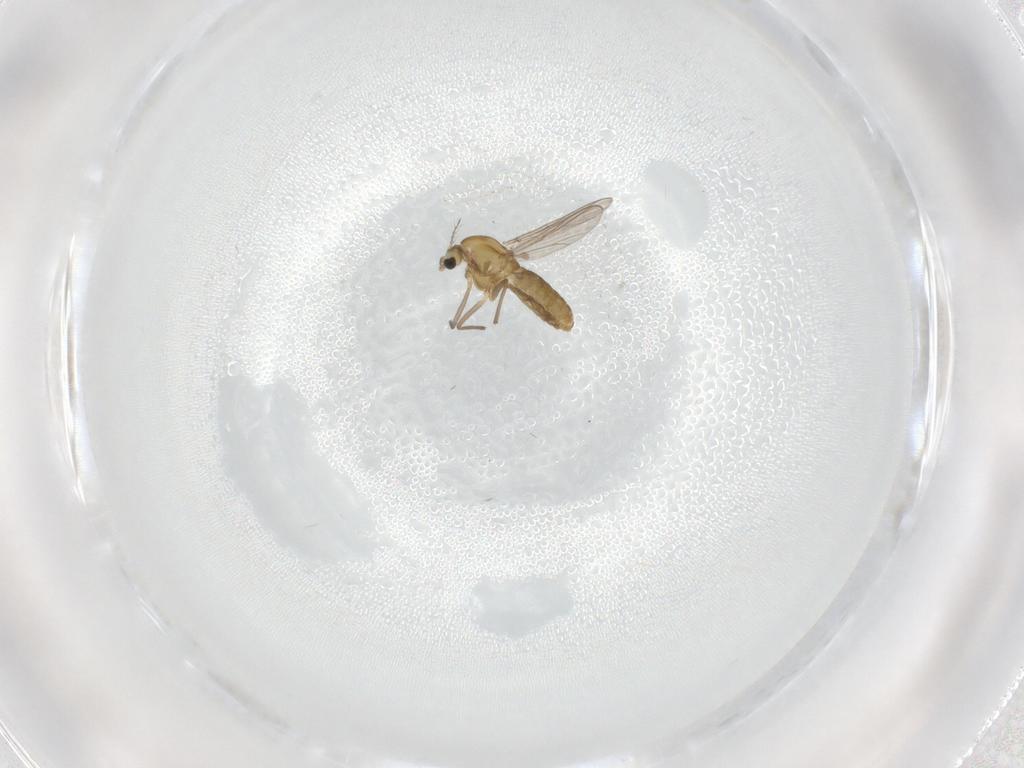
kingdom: Animalia
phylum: Arthropoda
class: Insecta
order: Diptera
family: Chironomidae
